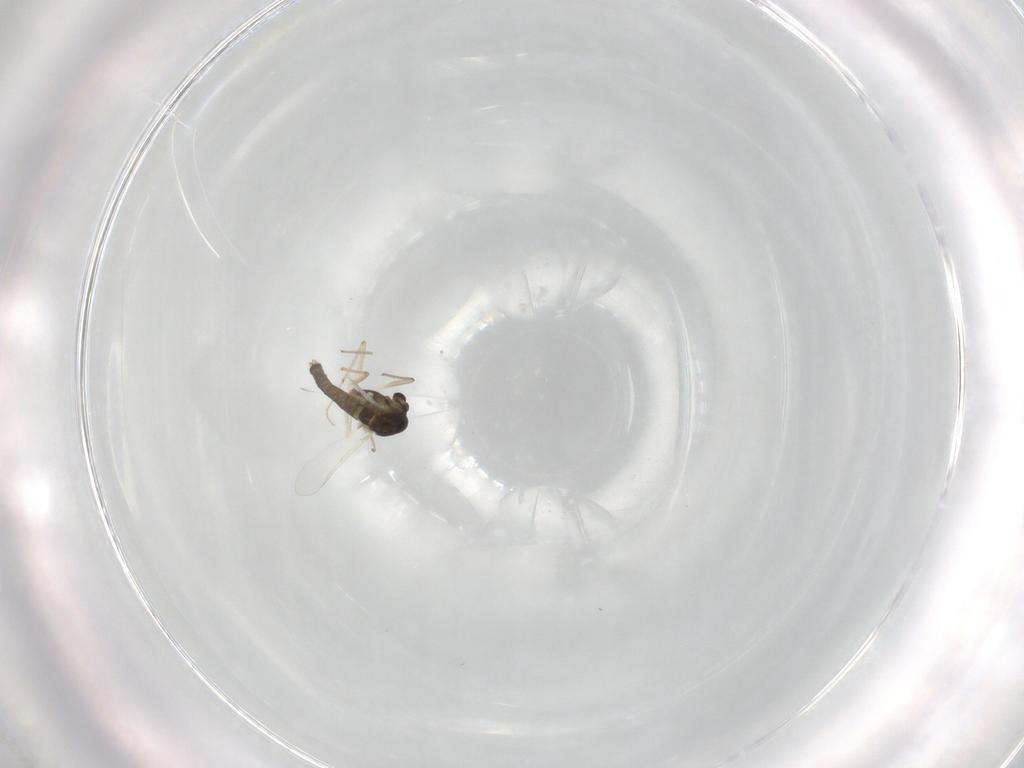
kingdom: Animalia
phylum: Arthropoda
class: Insecta
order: Diptera
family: Chironomidae
